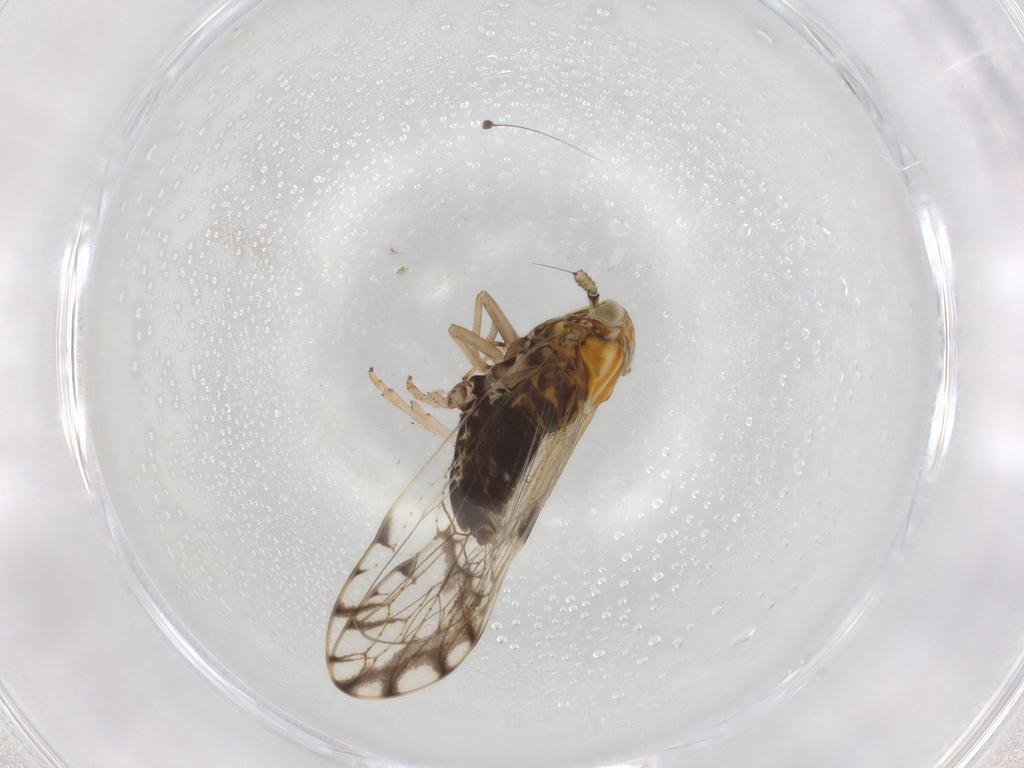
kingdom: Animalia
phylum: Arthropoda
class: Insecta
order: Hemiptera
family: Delphacidae
